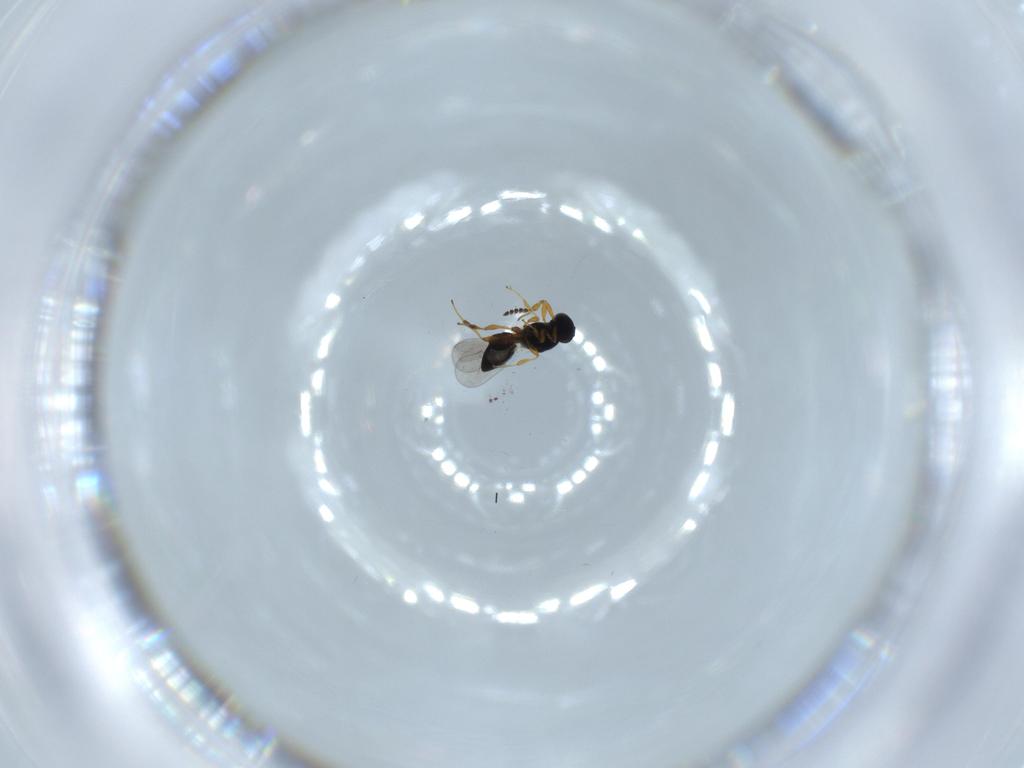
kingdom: Animalia
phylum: Arthropoda
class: Insecta
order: Hymenoptera
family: Platygastridae
